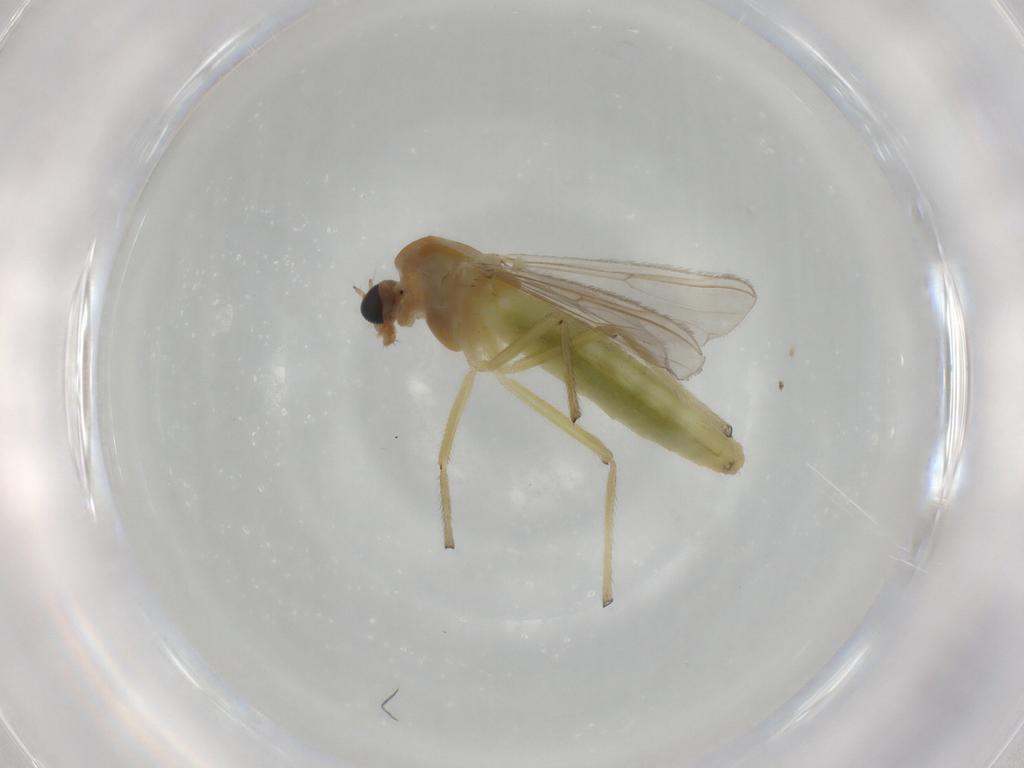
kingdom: Animalia
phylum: Arthropoda
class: Insecta
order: Diptera
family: Chironomidae
